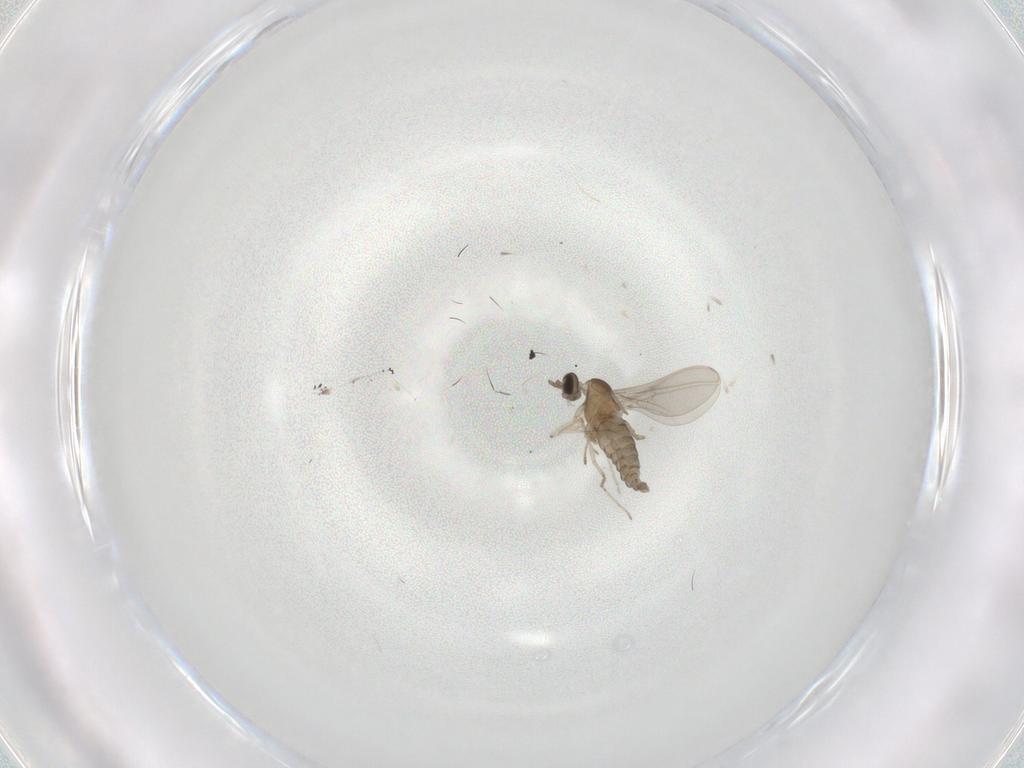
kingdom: Animalia
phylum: Arthropoda
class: Insecta
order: Diptera
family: Cecidomyiidae
